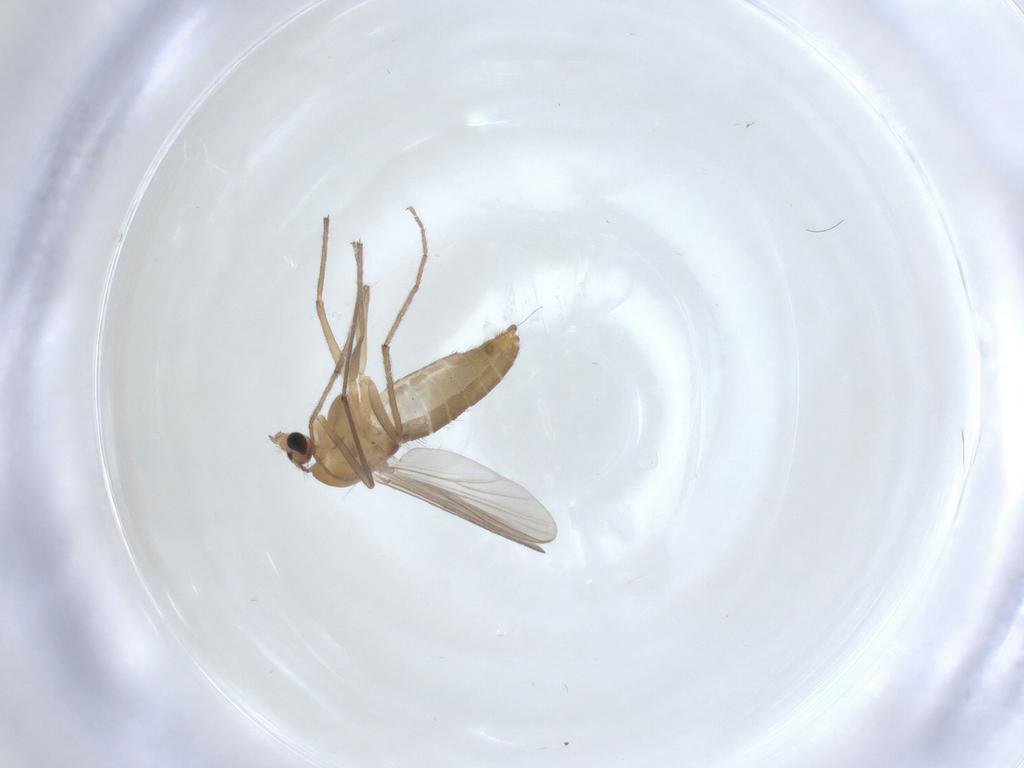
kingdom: Animalia
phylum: Arthropoda
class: Insecta
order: Diptera
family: Chironomidae
